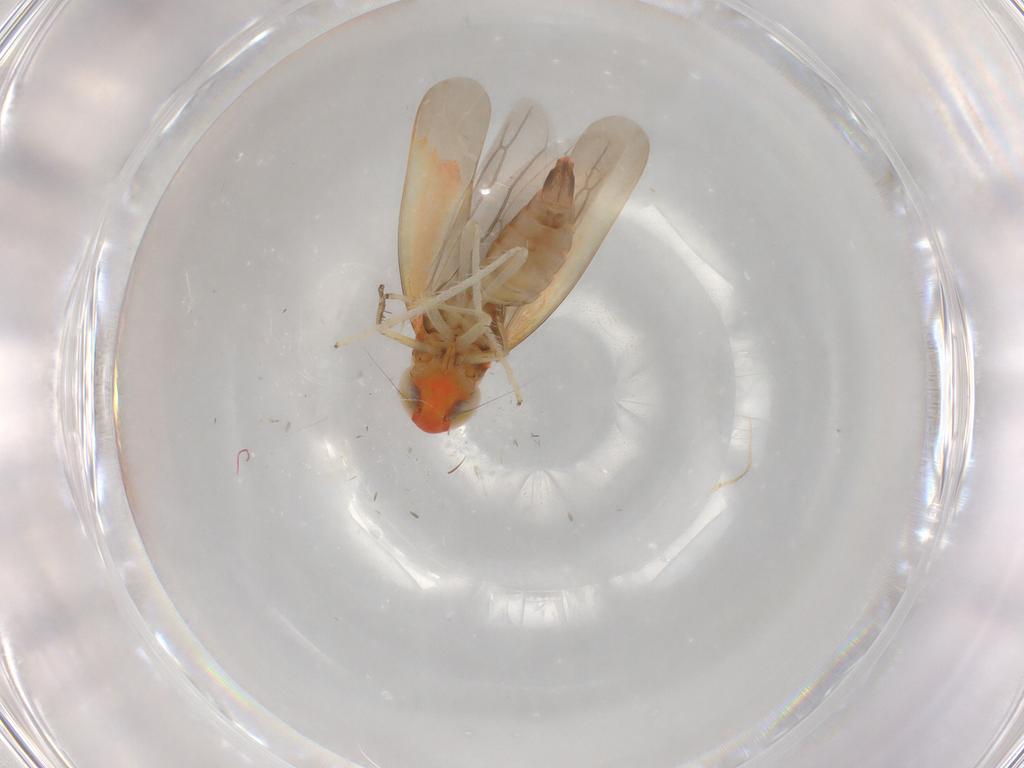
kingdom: Animalia
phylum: Arthropoda
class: Insecta
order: Hemiptera
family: Cicadellidae
